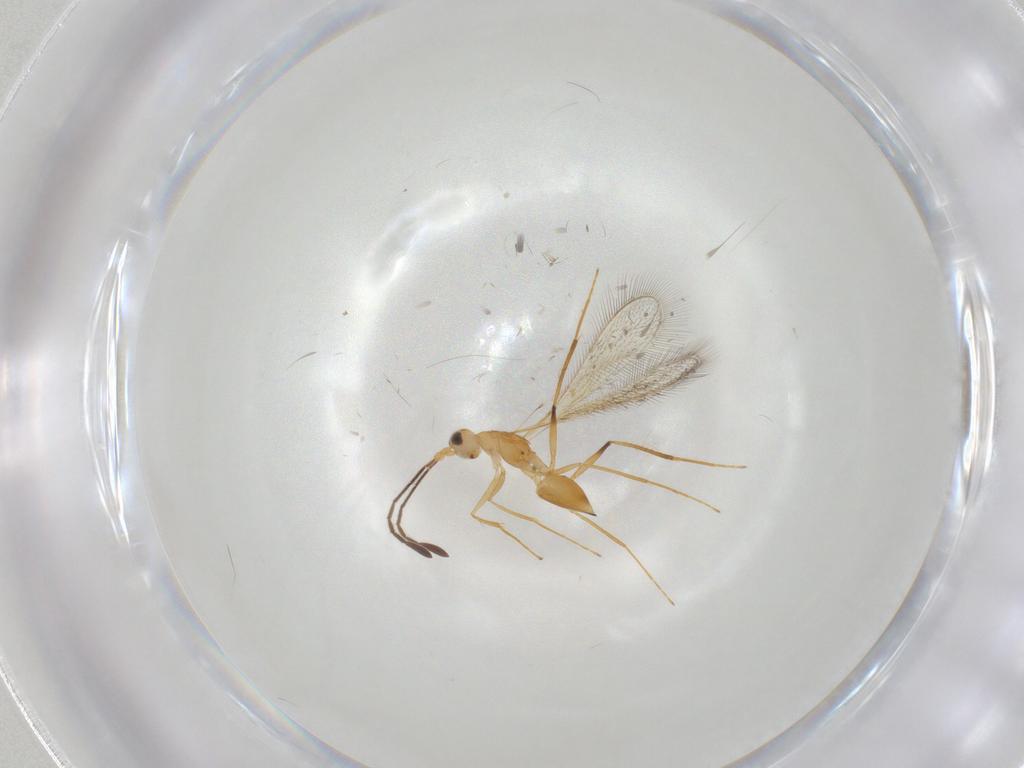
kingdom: Animalia
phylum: Arthropoda
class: Insecta
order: Hymenoptera
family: Mymaridae
